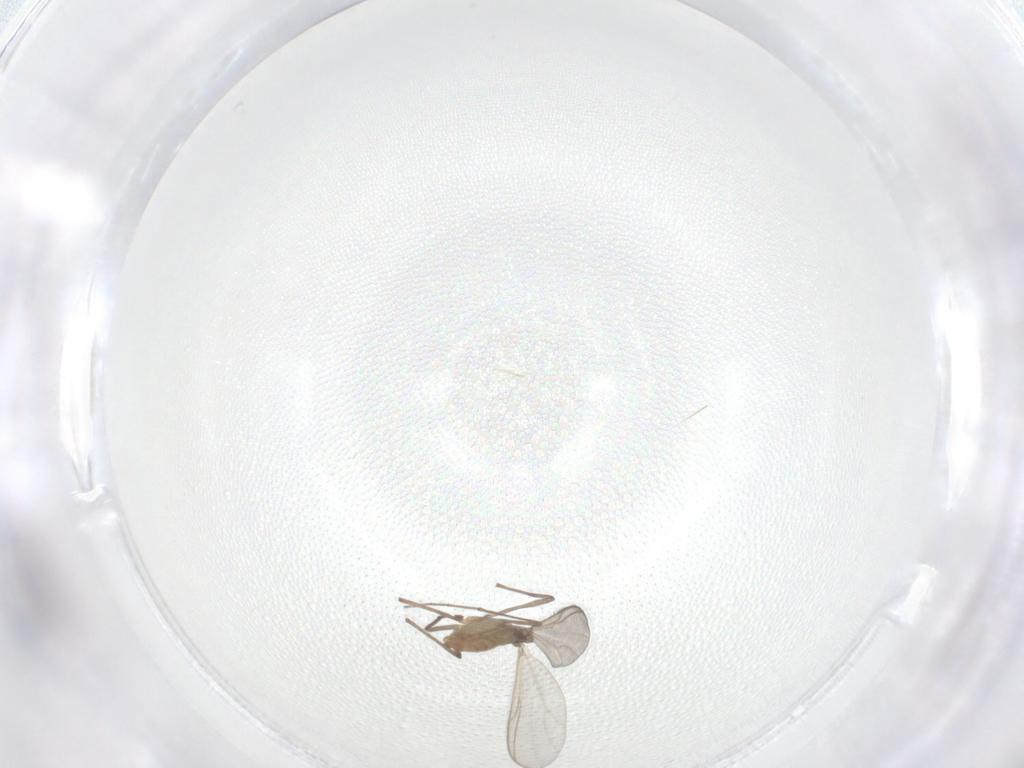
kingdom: Animalia
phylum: Arthropoda
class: Insecta
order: Diptera
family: Chironomidae
